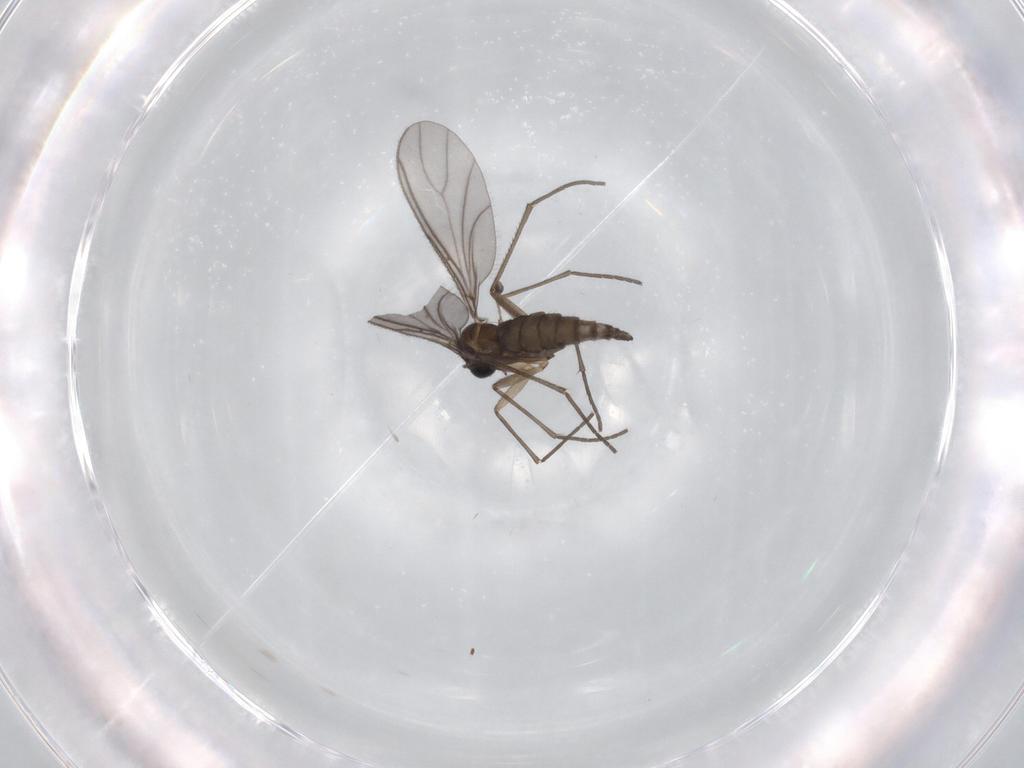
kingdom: Animalia
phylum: Arthropoda
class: Insecta
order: Diptera
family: Sciaridae
